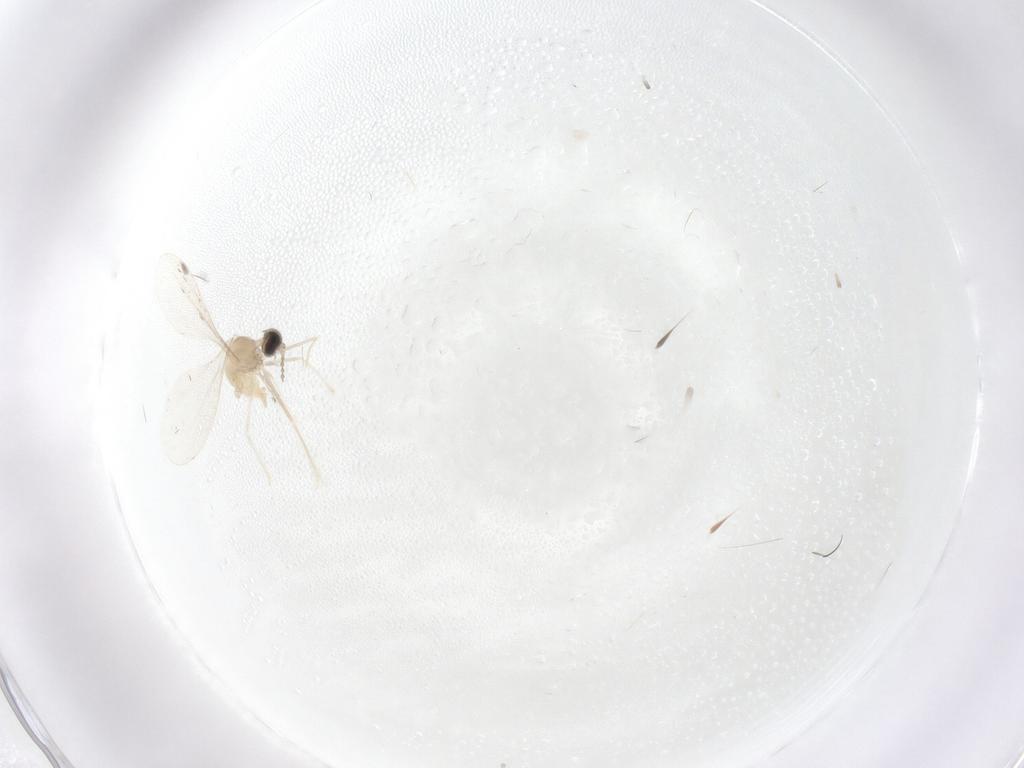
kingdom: Animalia
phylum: Arthropoda
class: Insecta
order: Diptera
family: Cecidomyiidae
